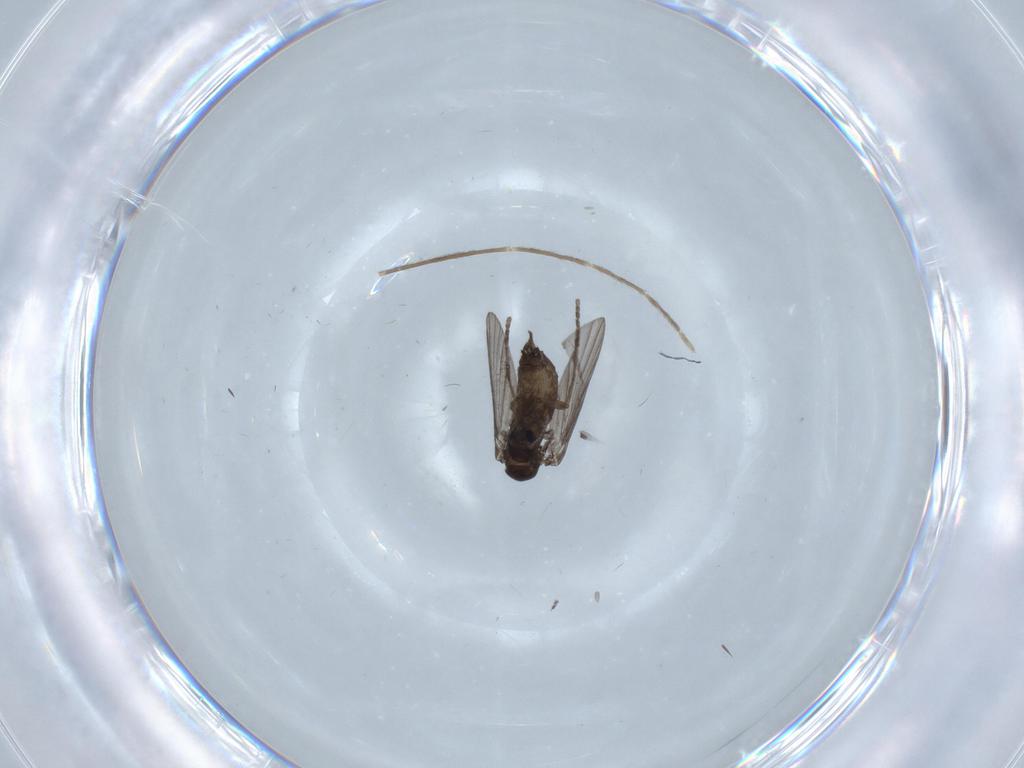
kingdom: Animalia
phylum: Arthropoda
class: Insecta
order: Diptera
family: Psychodidae
